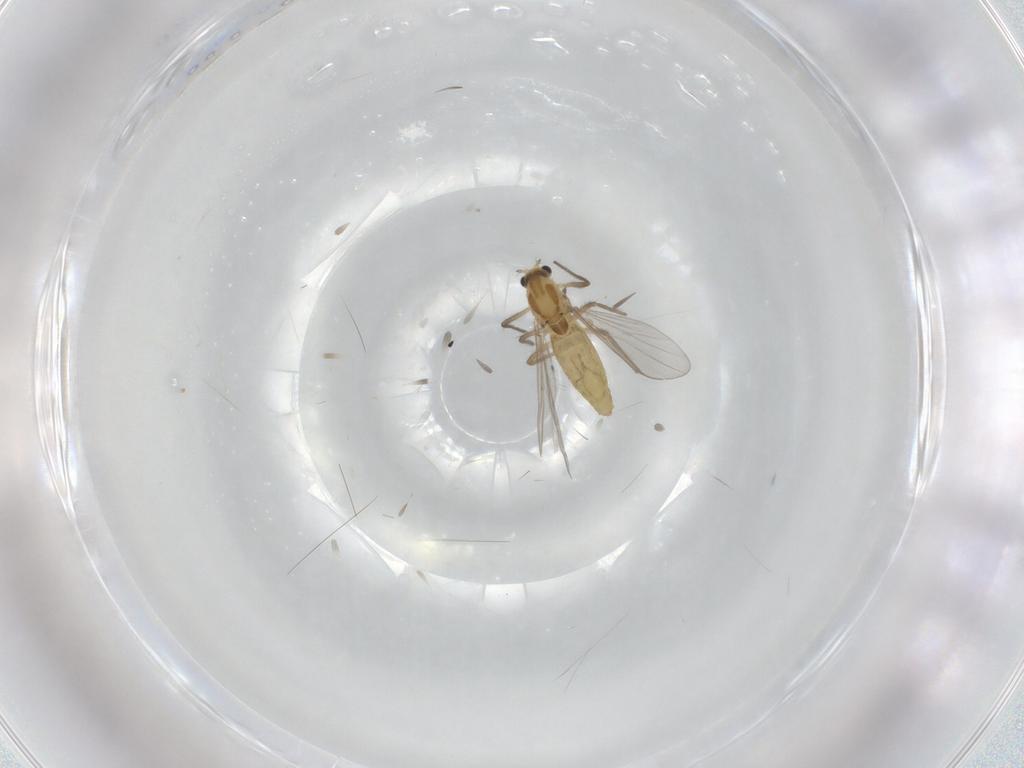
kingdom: Animalia
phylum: Arthropoda
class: Insecta
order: Diptera
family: Chironomidae
